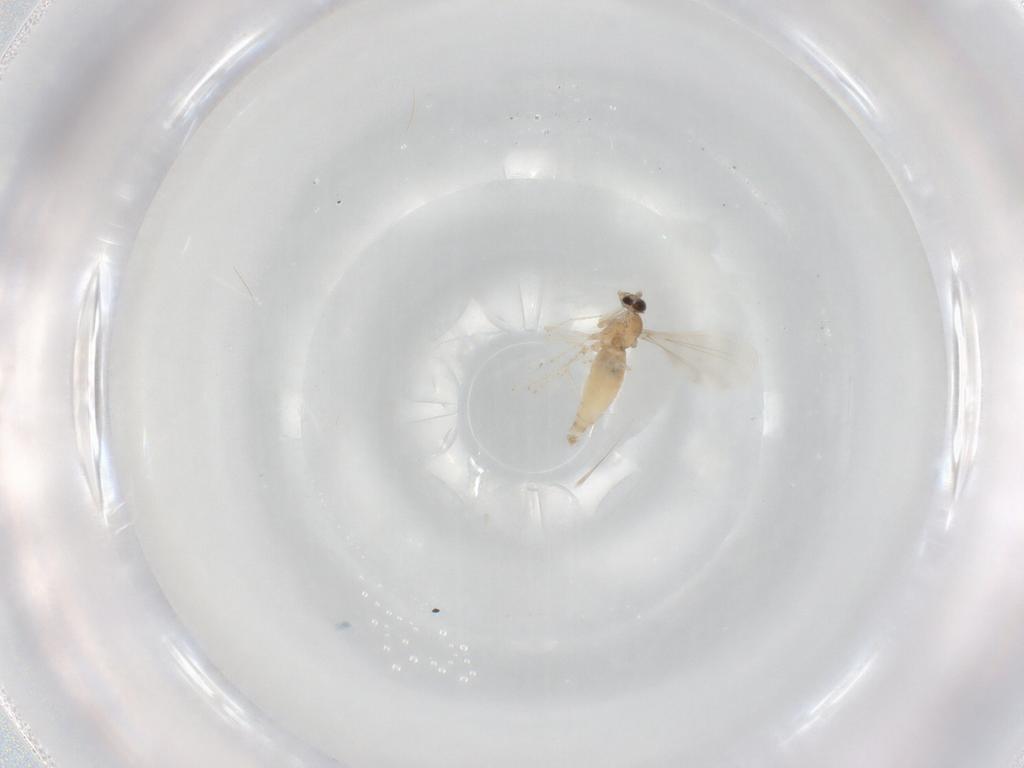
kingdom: Animalia
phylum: Arthropoda
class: Insecta
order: Diptera
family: Cecidomyiidae
